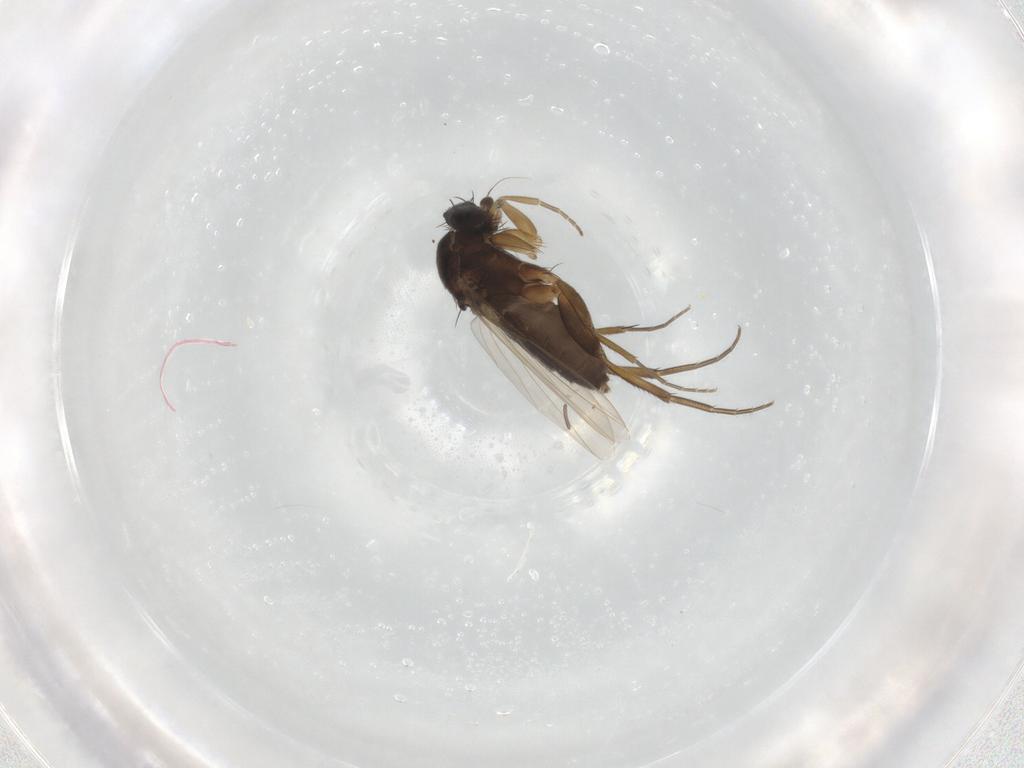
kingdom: Animalia
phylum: Arthropoda
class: Insecta
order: Diptera
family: Phoridae
